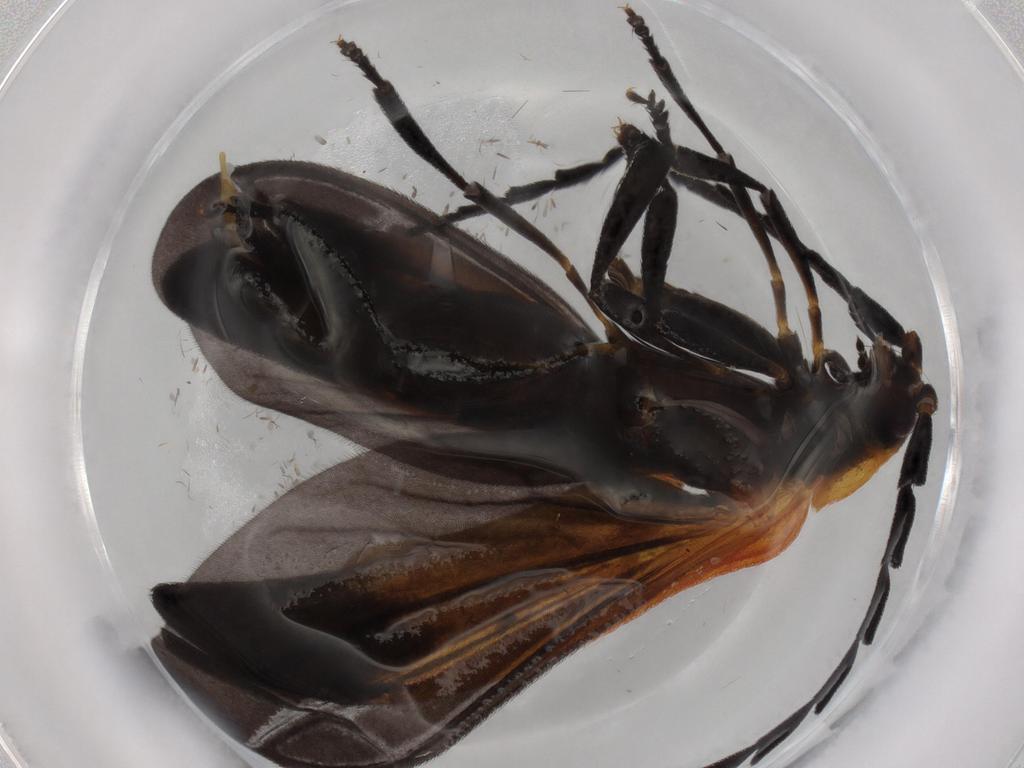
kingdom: Animalia
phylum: Arthropoda
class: Insecta
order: Coleoptera
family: Lycidae
